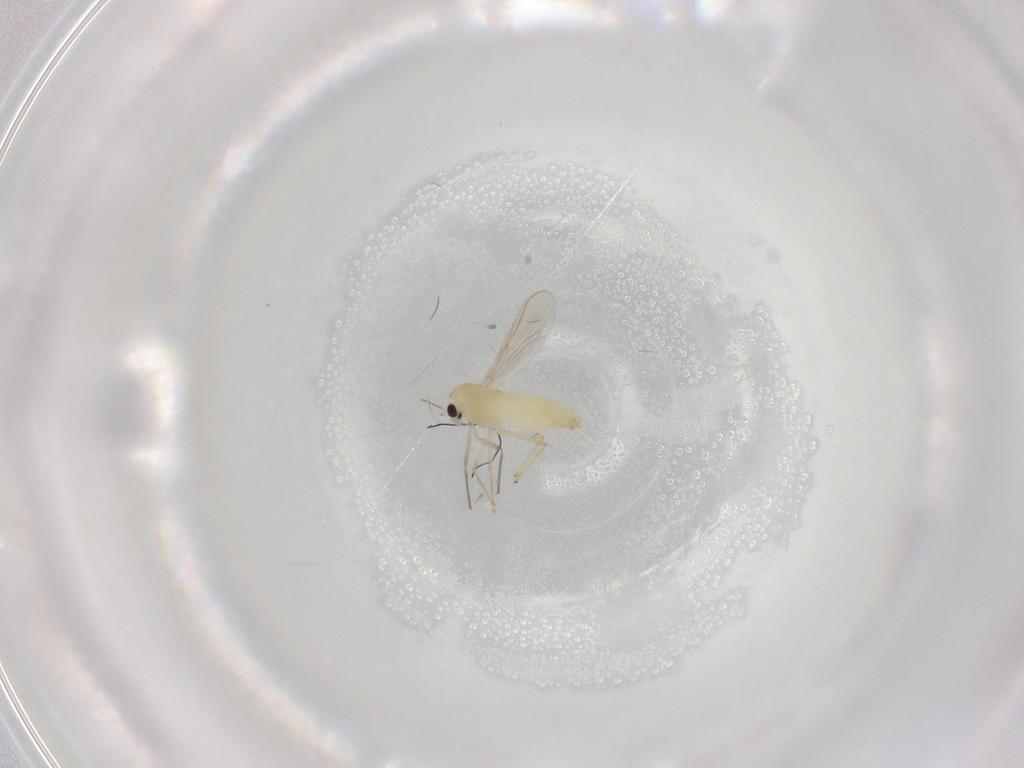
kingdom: Animalia
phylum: Arthropoda
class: Insecta
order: Diptera
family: Chironomidae
